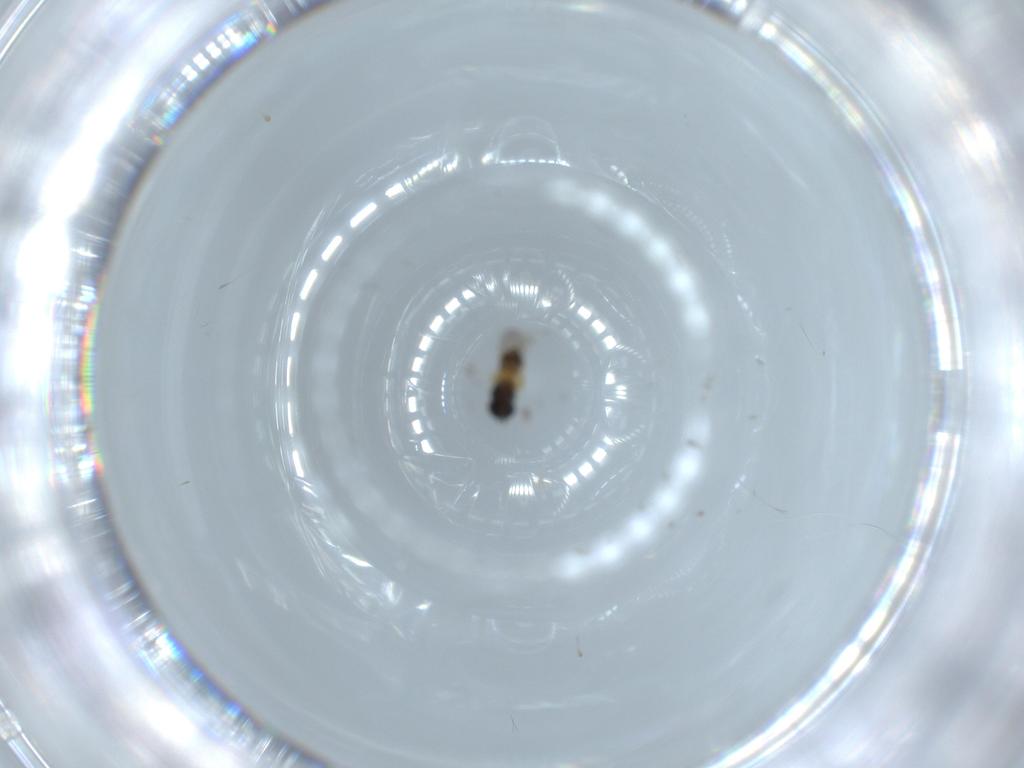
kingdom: Animalia
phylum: Arthropoda
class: Insecta
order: Hymenoptera
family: Scelionidae
